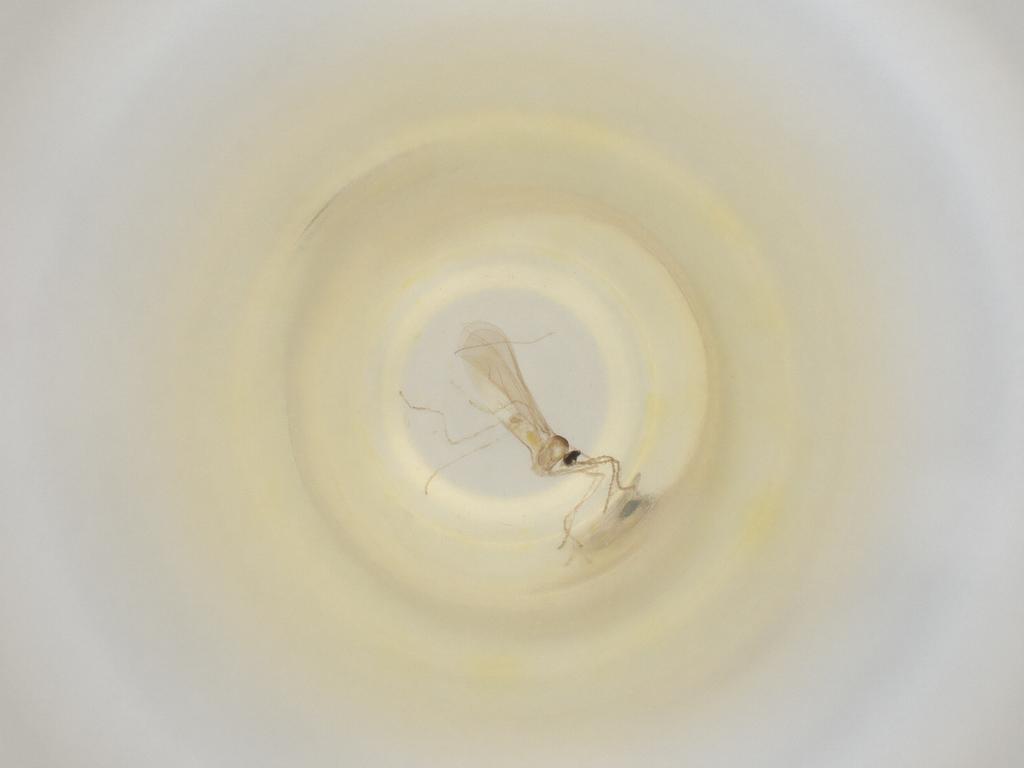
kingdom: Animalia
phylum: Arthropoda
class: Insecta
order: Diptera
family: Cecidomyiidae
